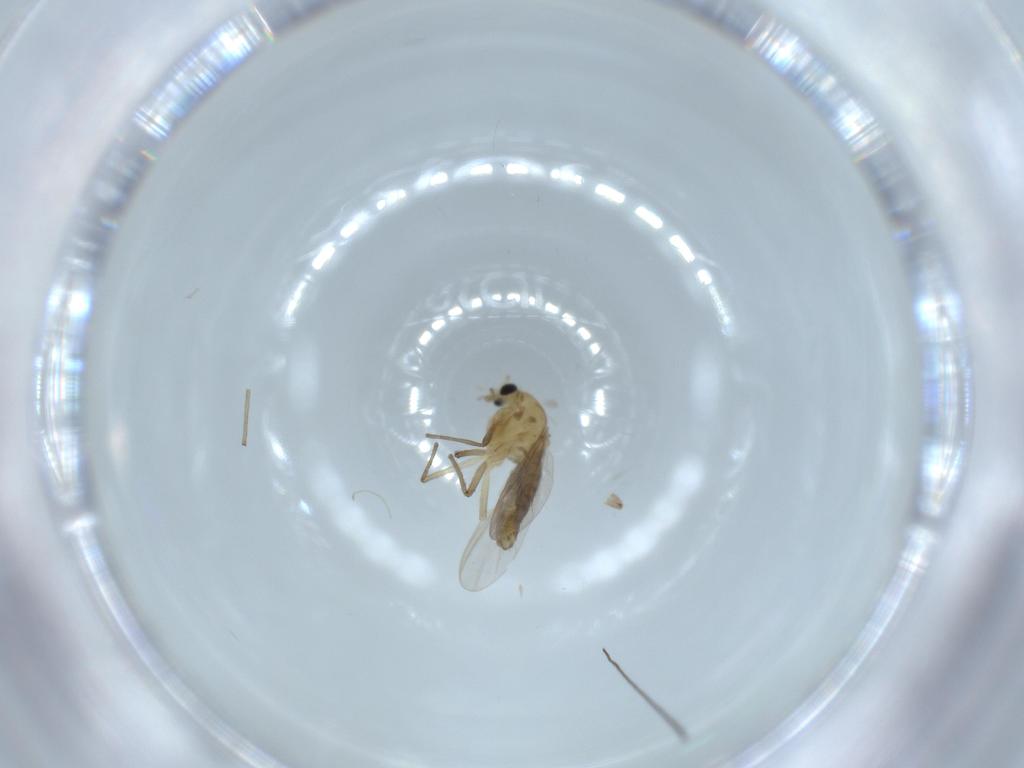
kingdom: Animalia
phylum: Arthropoda
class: Insecta
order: Diptera
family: Chironomidae
